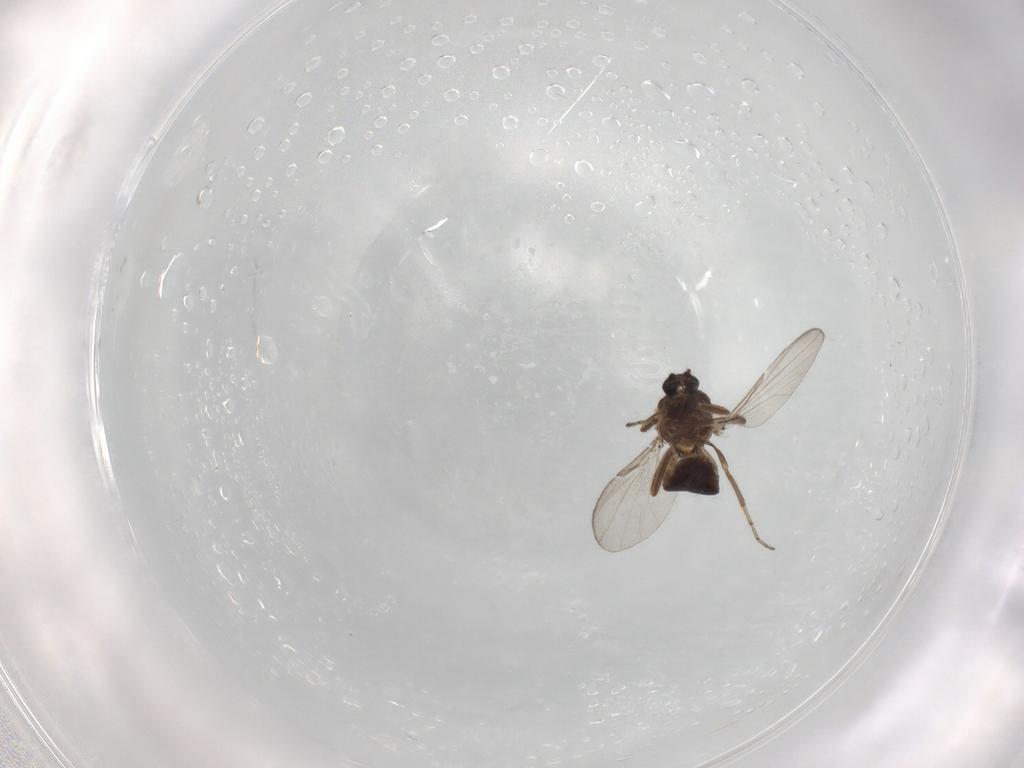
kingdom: Animalia
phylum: Arthropoda
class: Insecta
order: Diptera
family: Ceratopogonidae
